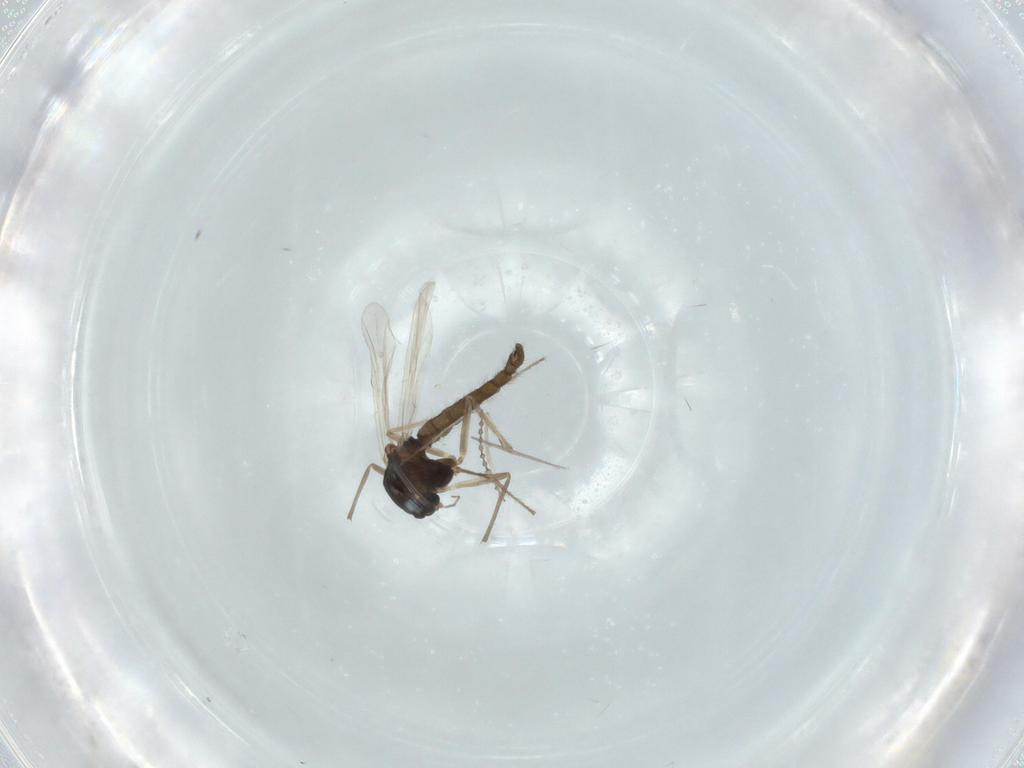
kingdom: Animalia
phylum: Arthropoda
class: Insecta
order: Diptera
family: Chironomidae
